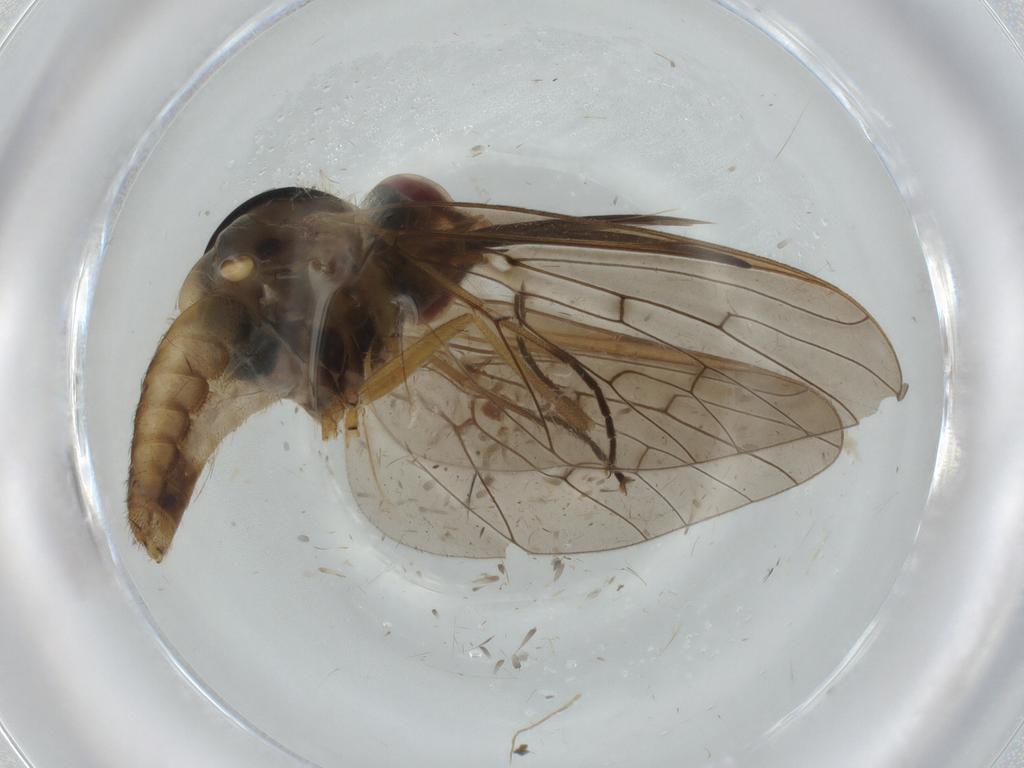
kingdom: Animalia
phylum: Arthropoda
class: Insecta
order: Diptera
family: Bombyliidae
